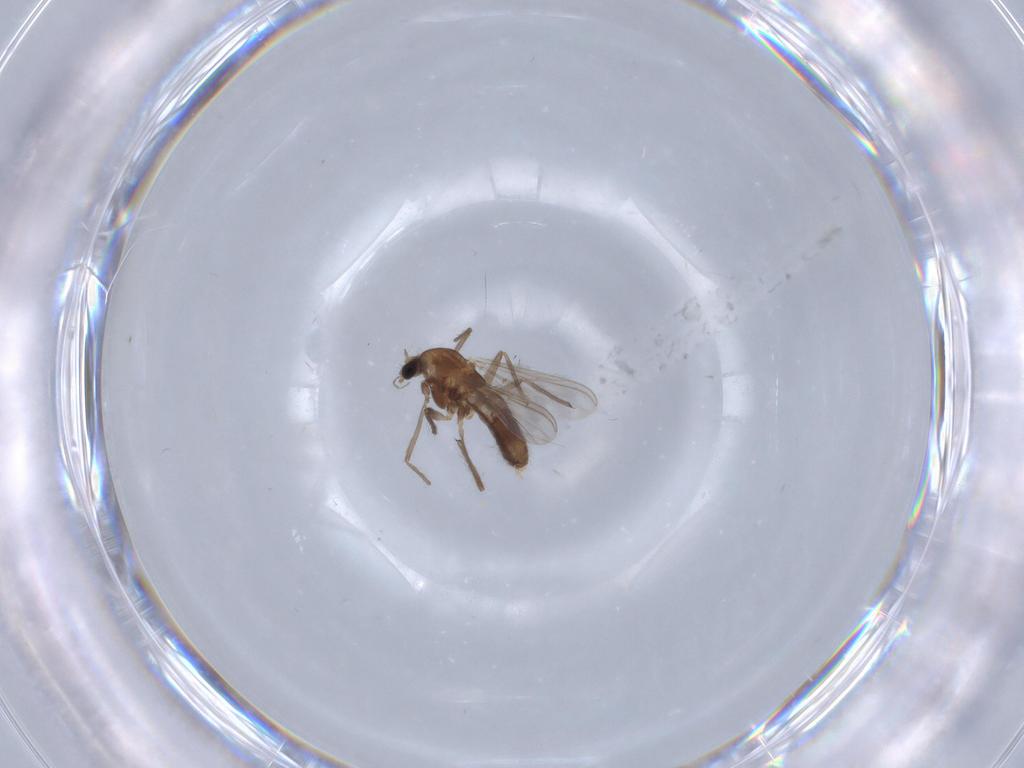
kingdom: Animalia
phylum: Arthropoda
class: Insecta
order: Diptera
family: Chironomidae
